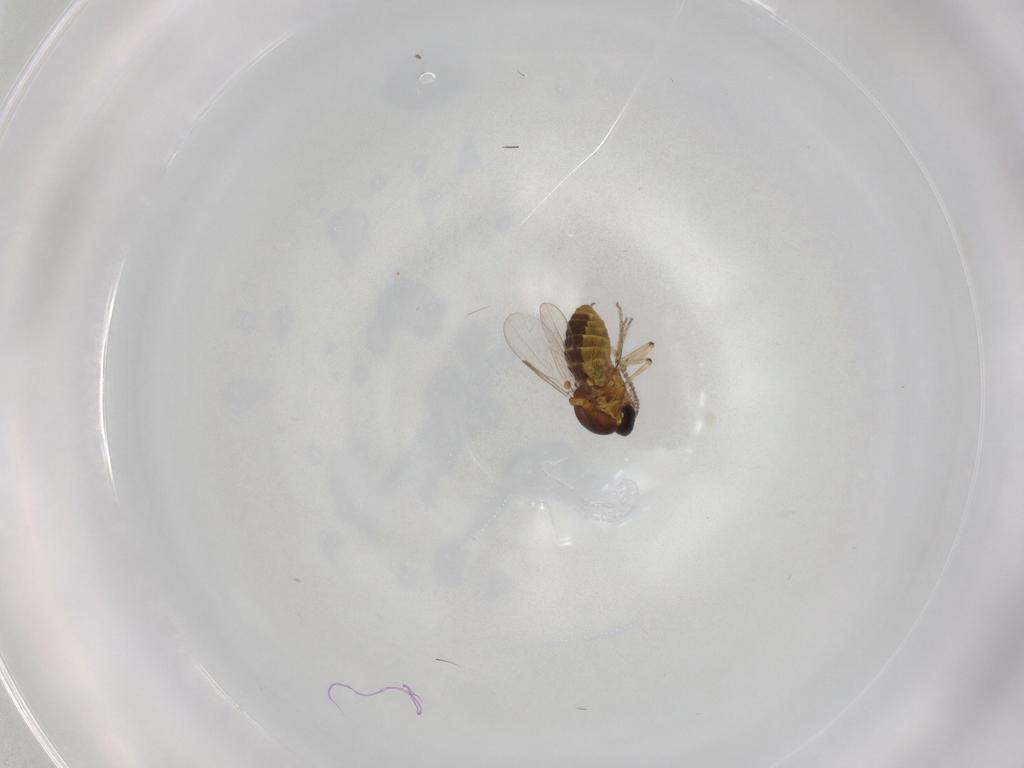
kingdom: Animalia
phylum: Arthropoda
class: Insecta
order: Diptera
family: Ceratopogonidae
